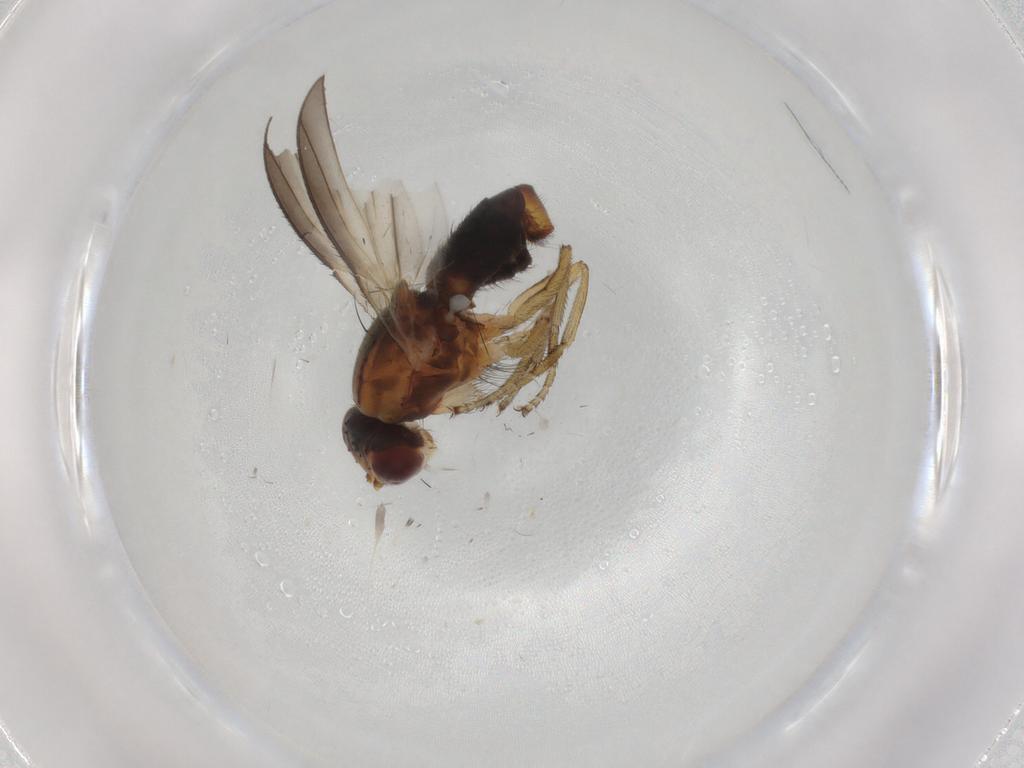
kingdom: Animalia
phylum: Arthropoda
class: Insecta
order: Diptera
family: Heleomyzidae
